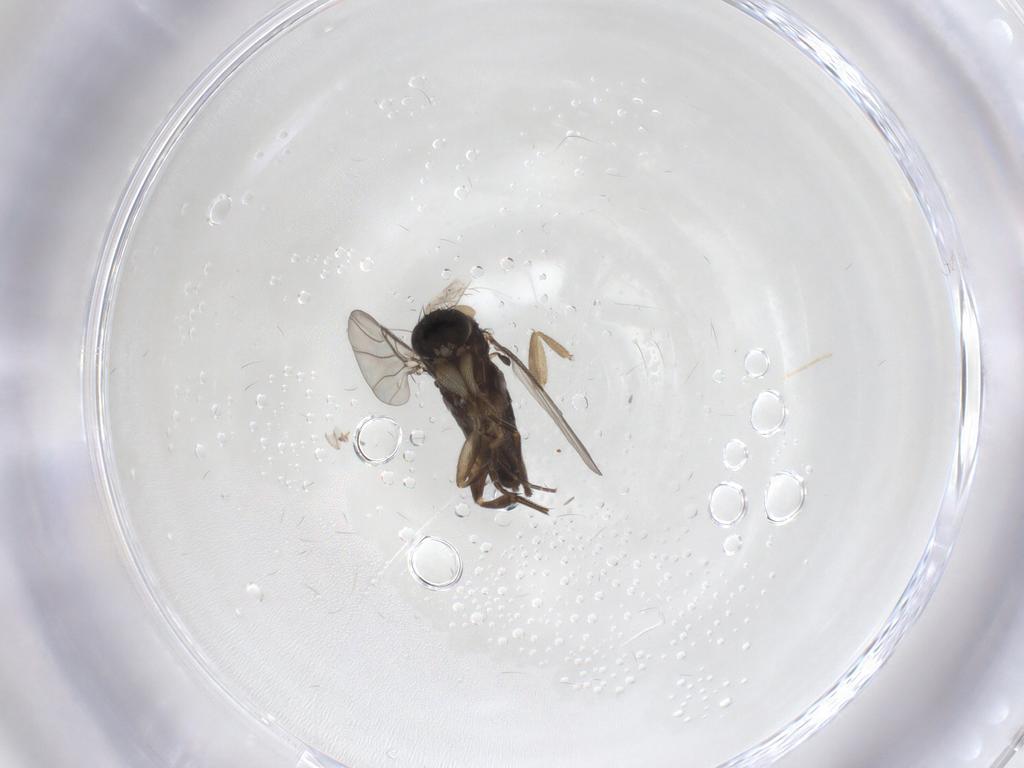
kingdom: Animalia
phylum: Arthropoda
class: Insecta
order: Diptera
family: Phoridae
